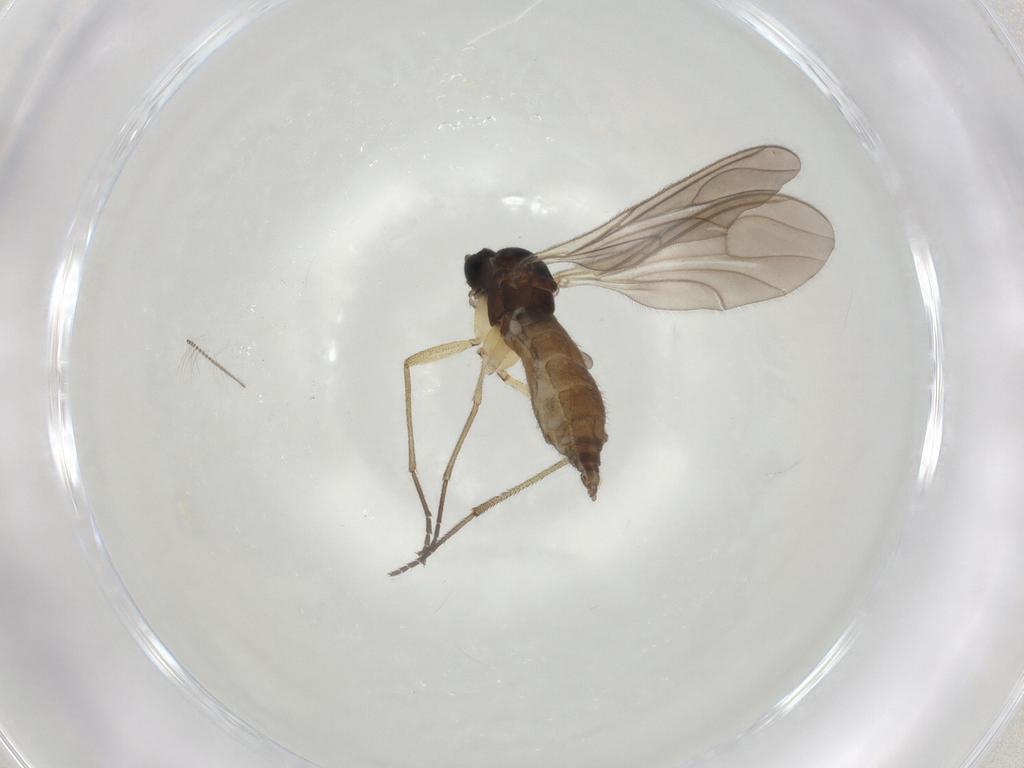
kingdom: Animalia
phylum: Arthropoda
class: Insecta
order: Diptera
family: Sciaridae
